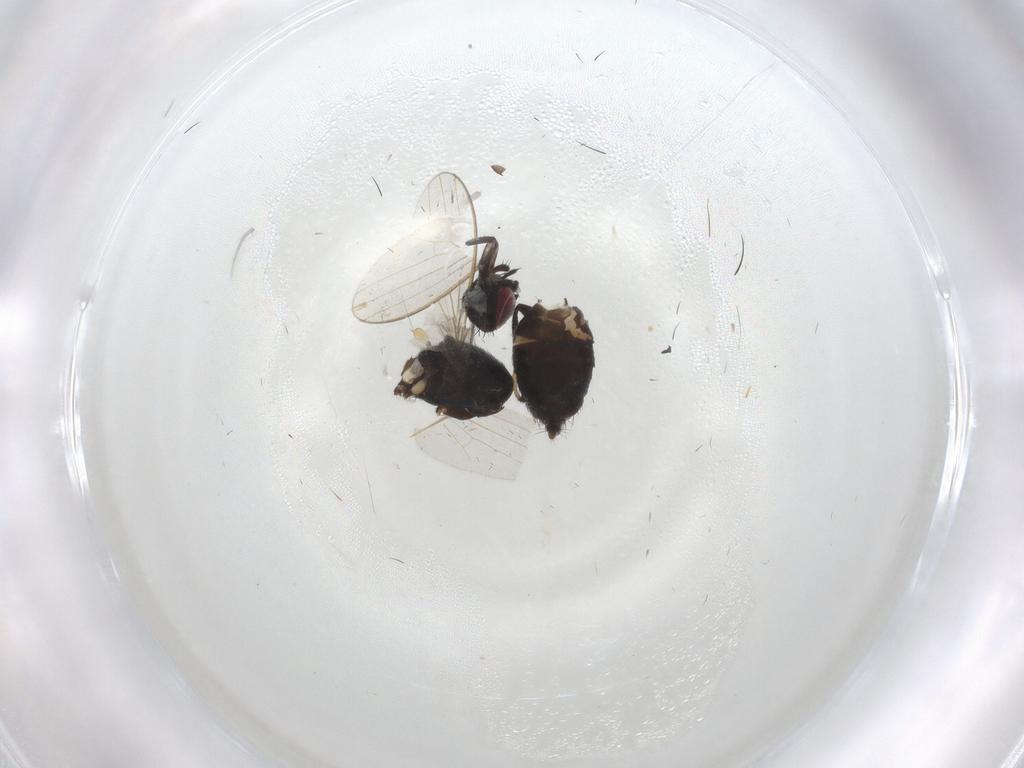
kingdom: Animalia
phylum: Arthropoda
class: Insecta
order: Diptera
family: Milichiidae
